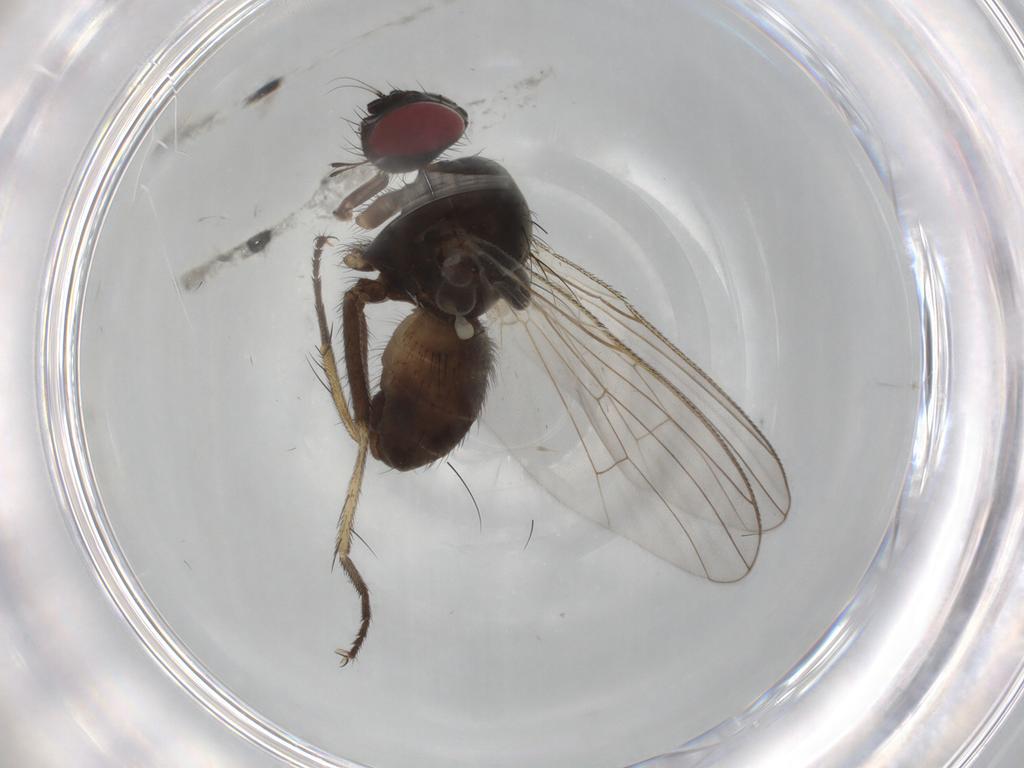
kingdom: Animalia
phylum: Arthropoda
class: Insecta
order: Diptera
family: Muscidae
